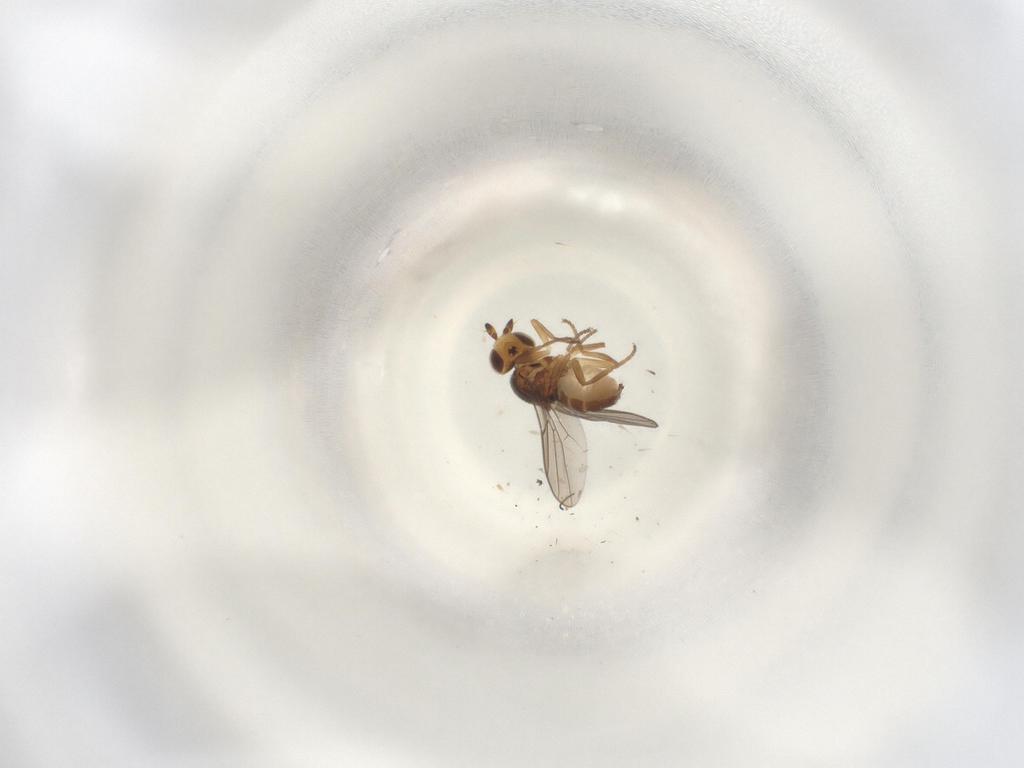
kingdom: Animalia
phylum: Arthropoda
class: Insecta
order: Diptera
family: Chloropidae
